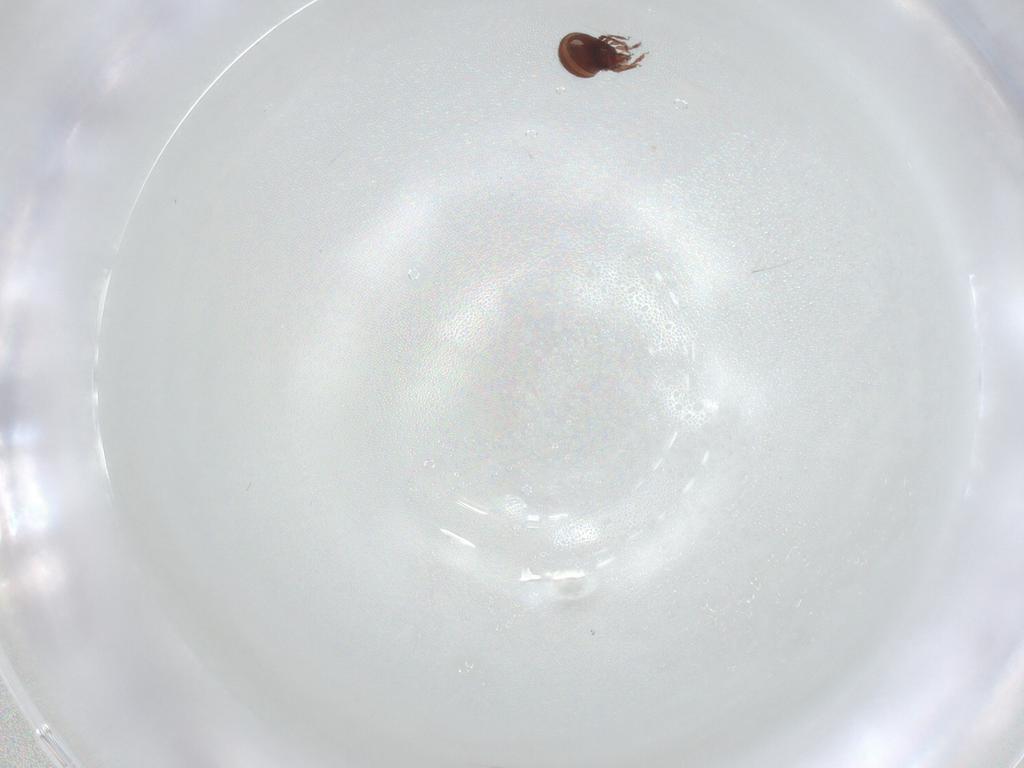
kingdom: Animalia
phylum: Arthropoda
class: Arachnida
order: Sarcoptiformes
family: Oribatulidae
